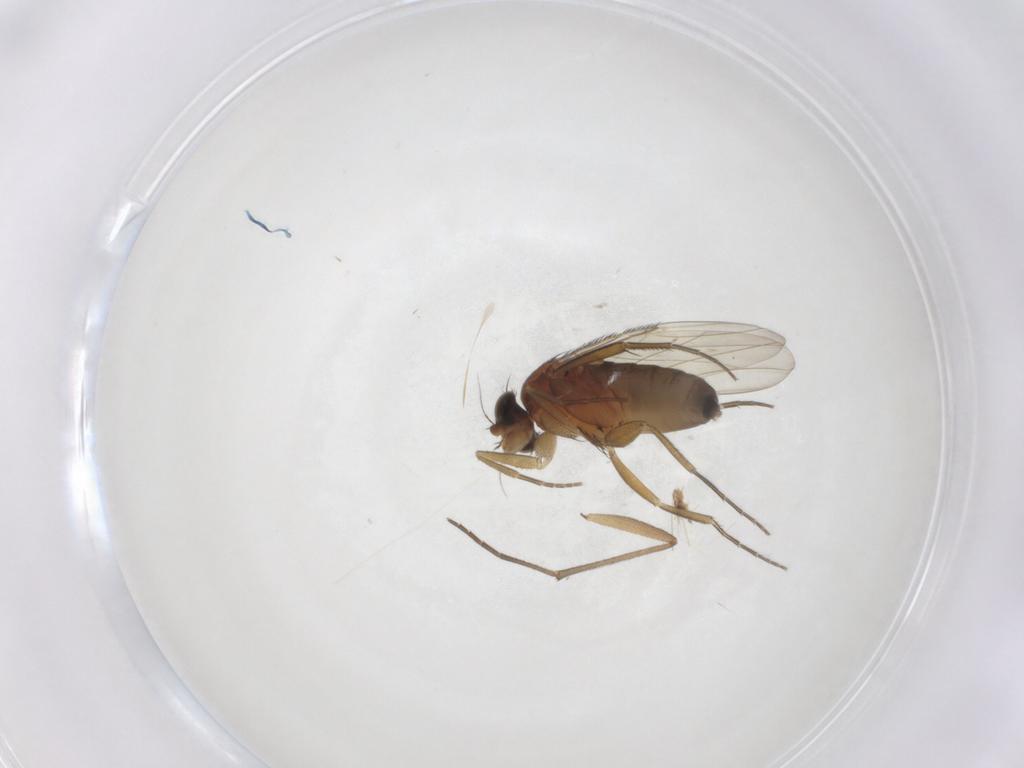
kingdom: Animalia
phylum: Arthropoda
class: Insecta
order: Diptera
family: Phoridae
